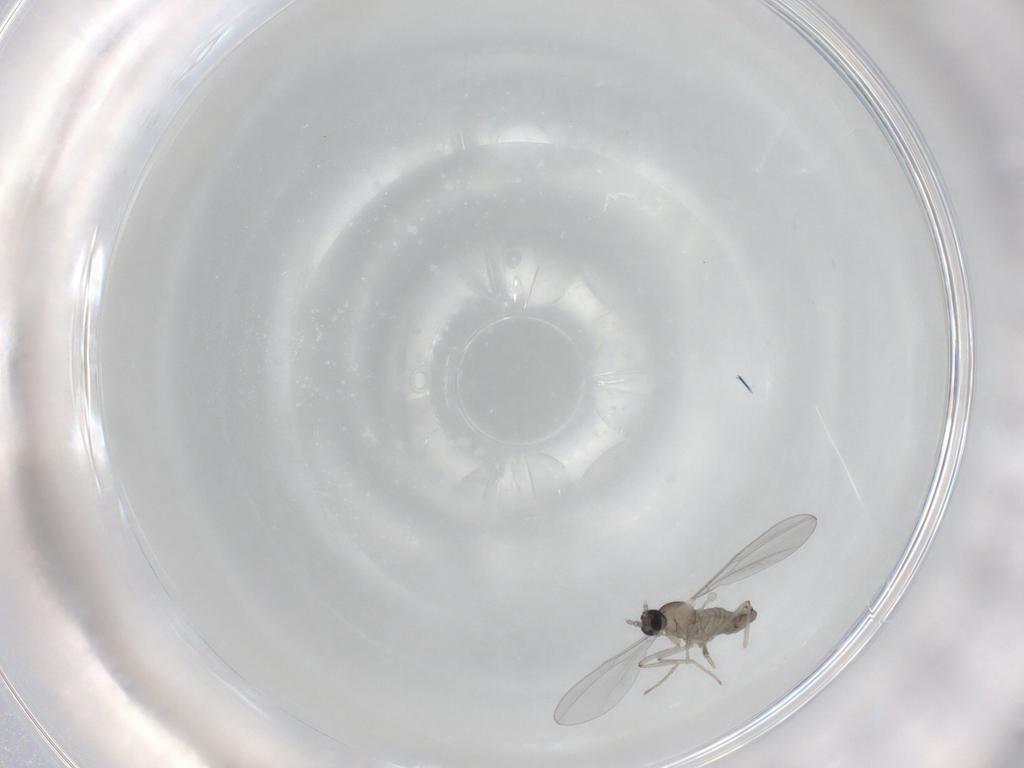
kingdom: Animalia
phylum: Arthropoda
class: Insecta
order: Diptera
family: Cecidomyiidae
